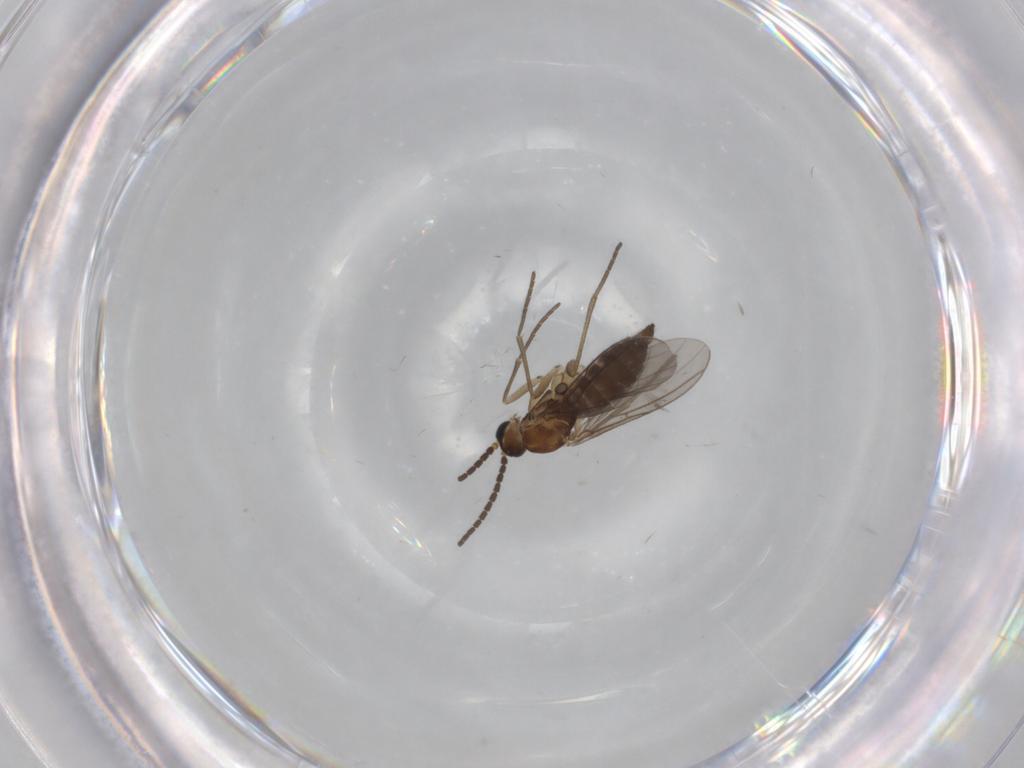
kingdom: Animalia
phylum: Arthropoda
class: Insecta
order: Diptera
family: Sciaridae
